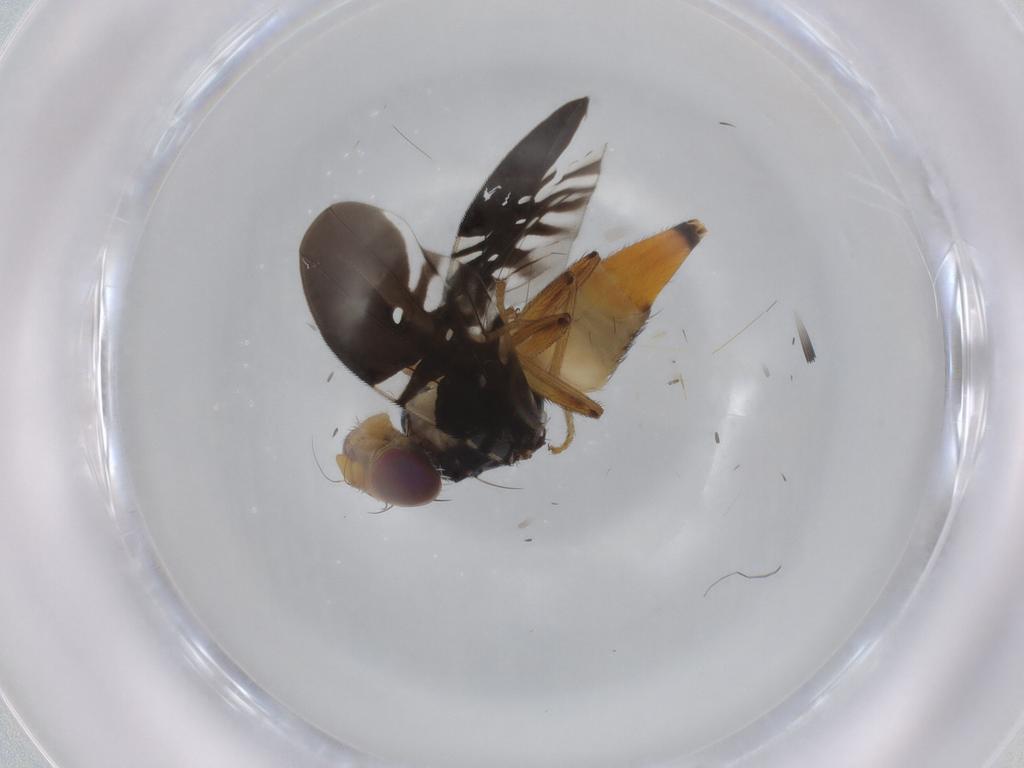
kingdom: Animalia
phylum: Arthropoda
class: Insecta
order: Diptera
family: Tephritidae
